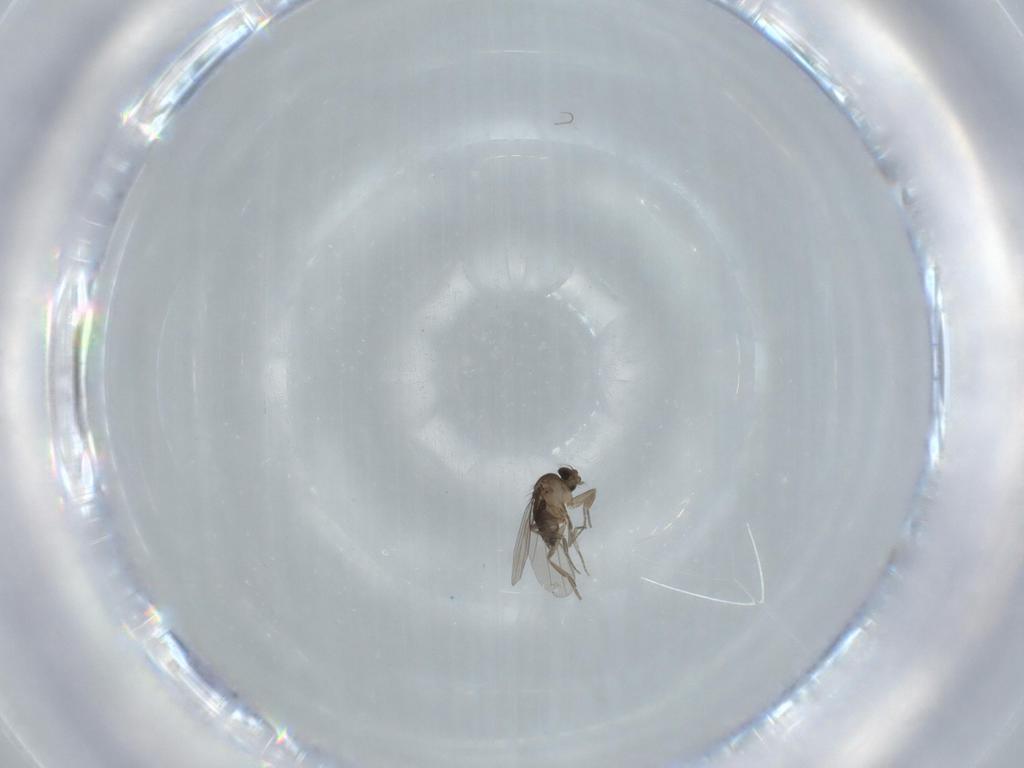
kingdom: Animalia
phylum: Arthropoda
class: Insecta
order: Diptera
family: Phoridae
